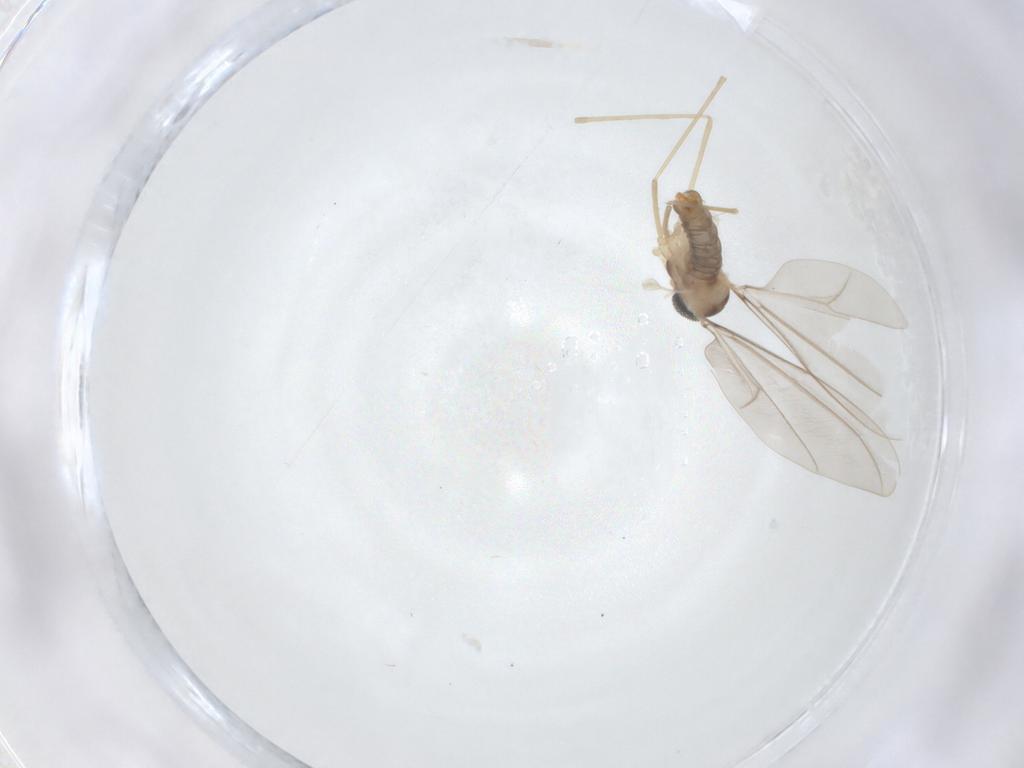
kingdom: Animalia
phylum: Arthropoda
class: Insecta
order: Diptera
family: Cecidomyiidae
